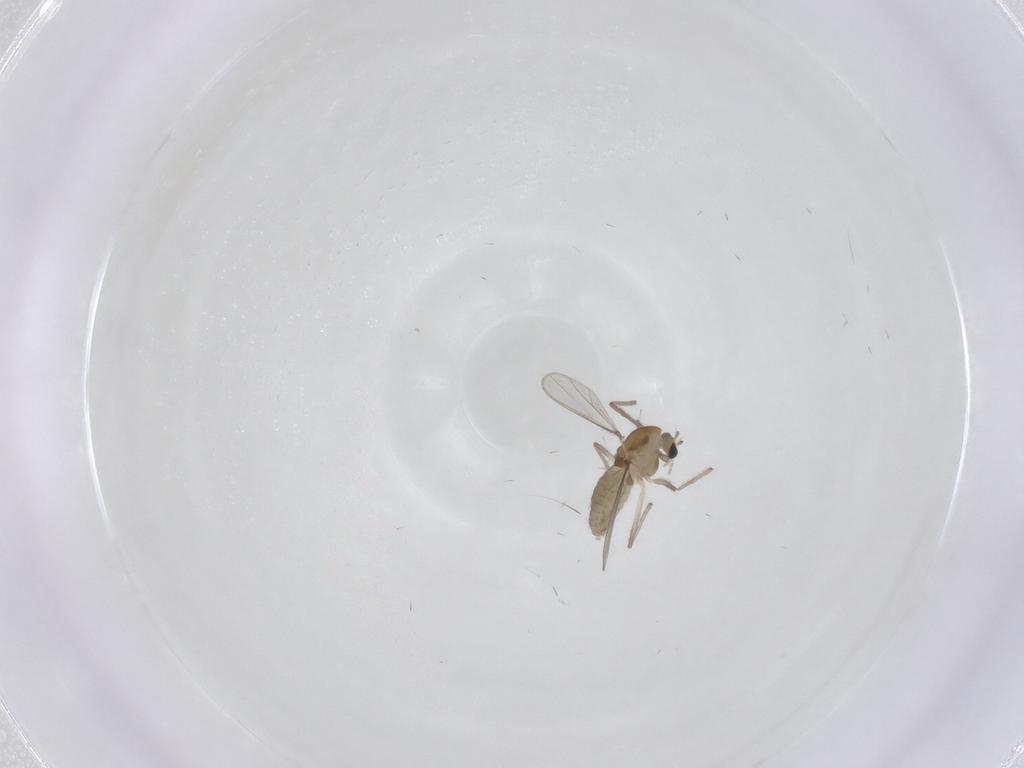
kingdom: Animalia
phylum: Arthropoda
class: Insecta
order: Diptera
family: Chironomidae
